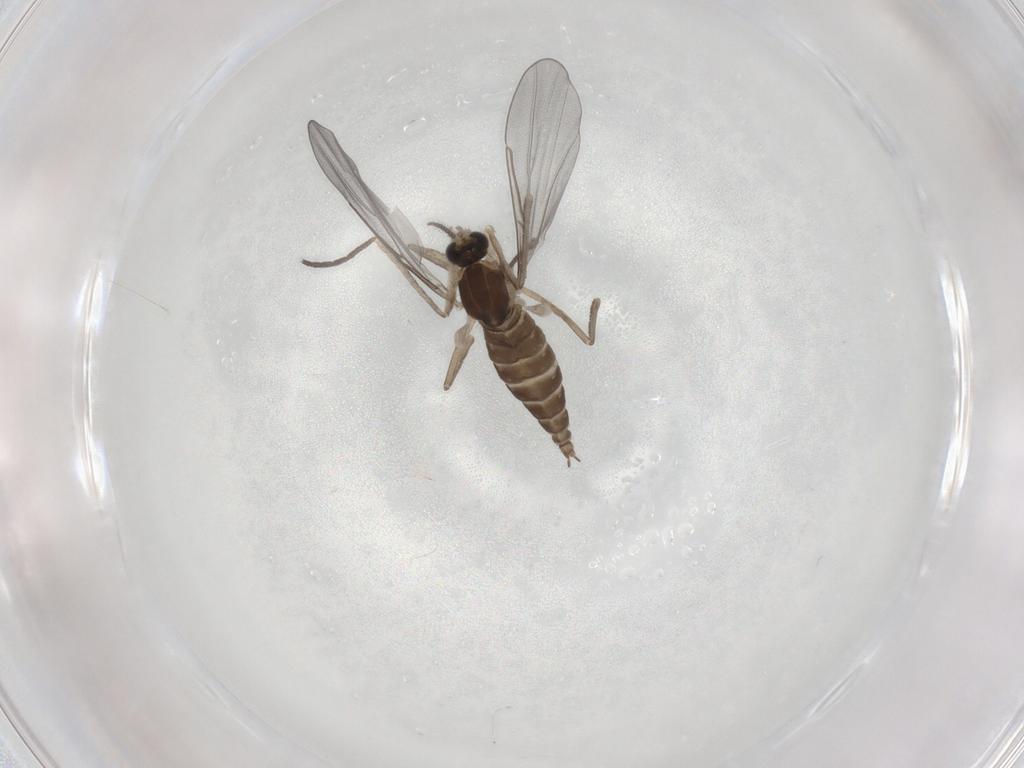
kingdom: Animalia
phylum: Arthropoda
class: Insecta
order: Diptera
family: Cecidomyiidae
